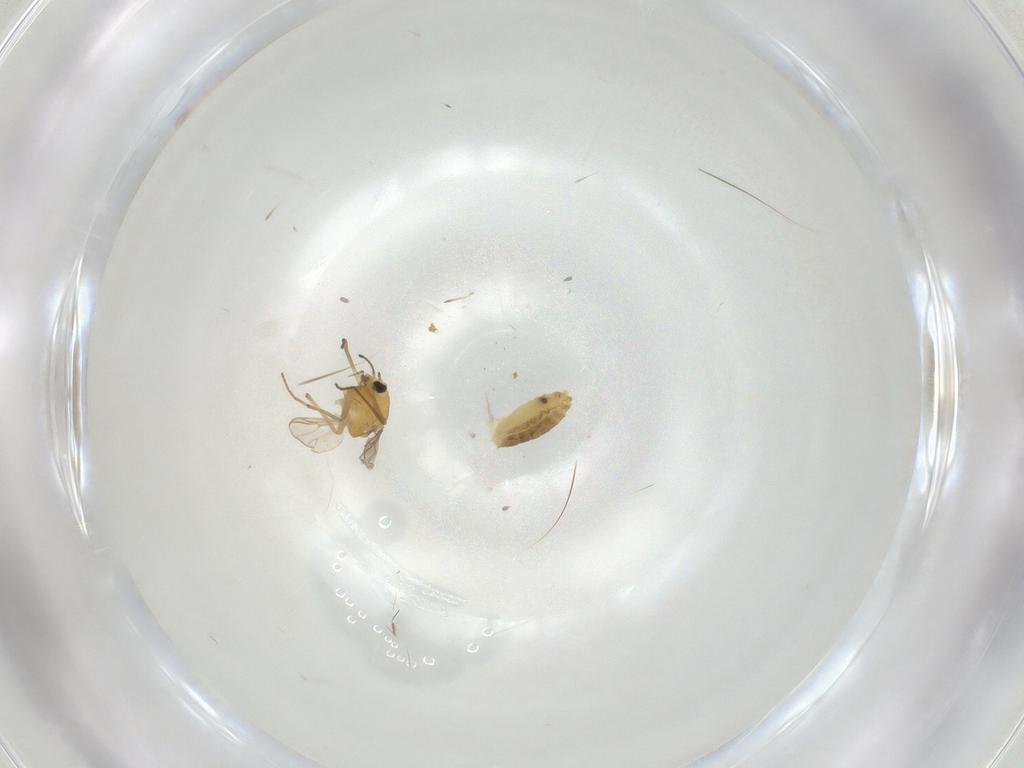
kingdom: Animalia
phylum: Arthropoda
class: Insecta
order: Diptera
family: Chironomidae
